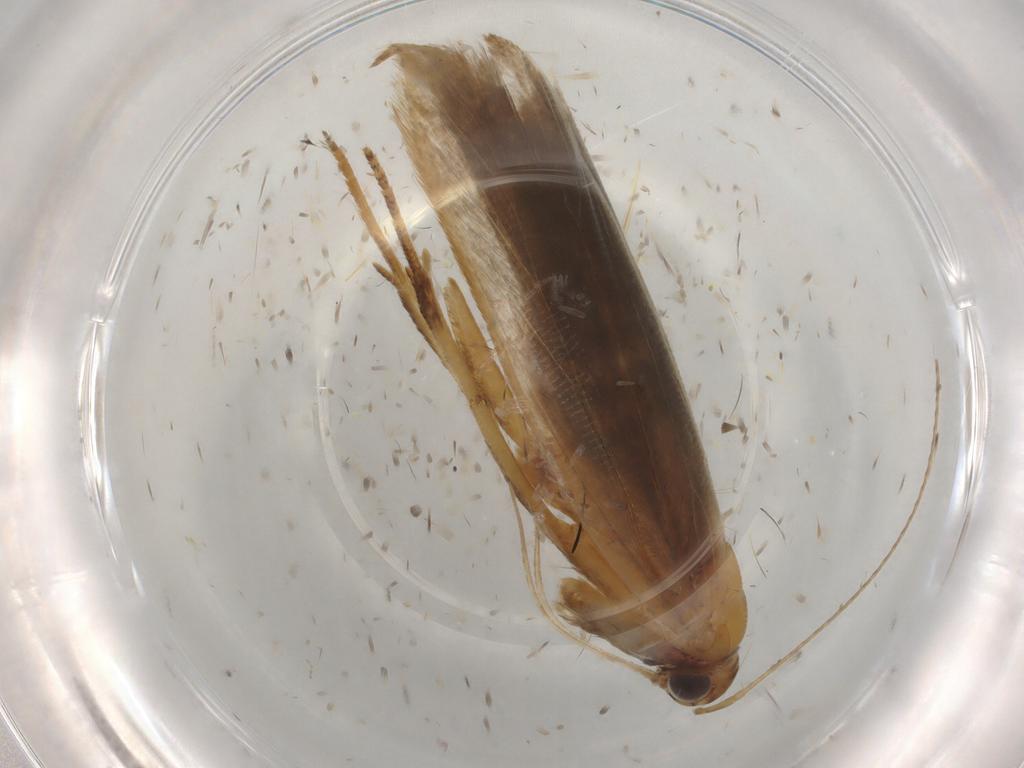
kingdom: Animalia
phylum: Arthropoda
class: Insecta
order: Lepidoptera
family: Gelechiidae
